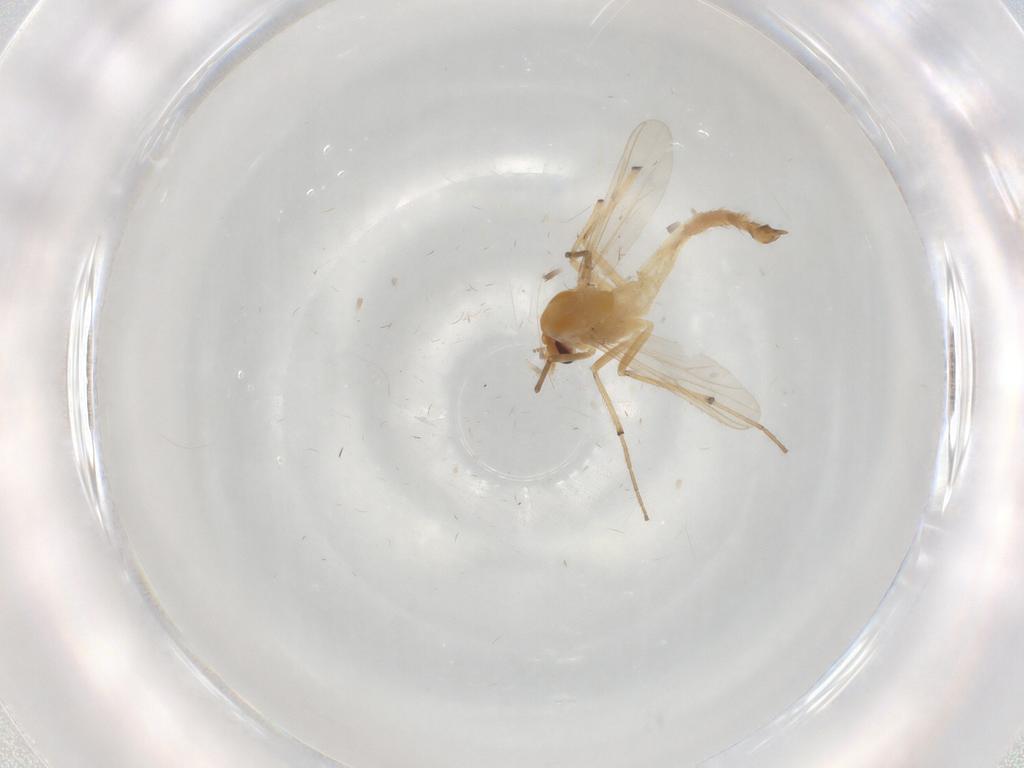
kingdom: Animalia
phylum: Arthropoda
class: Insecta
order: Diptera
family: Chironomidae
